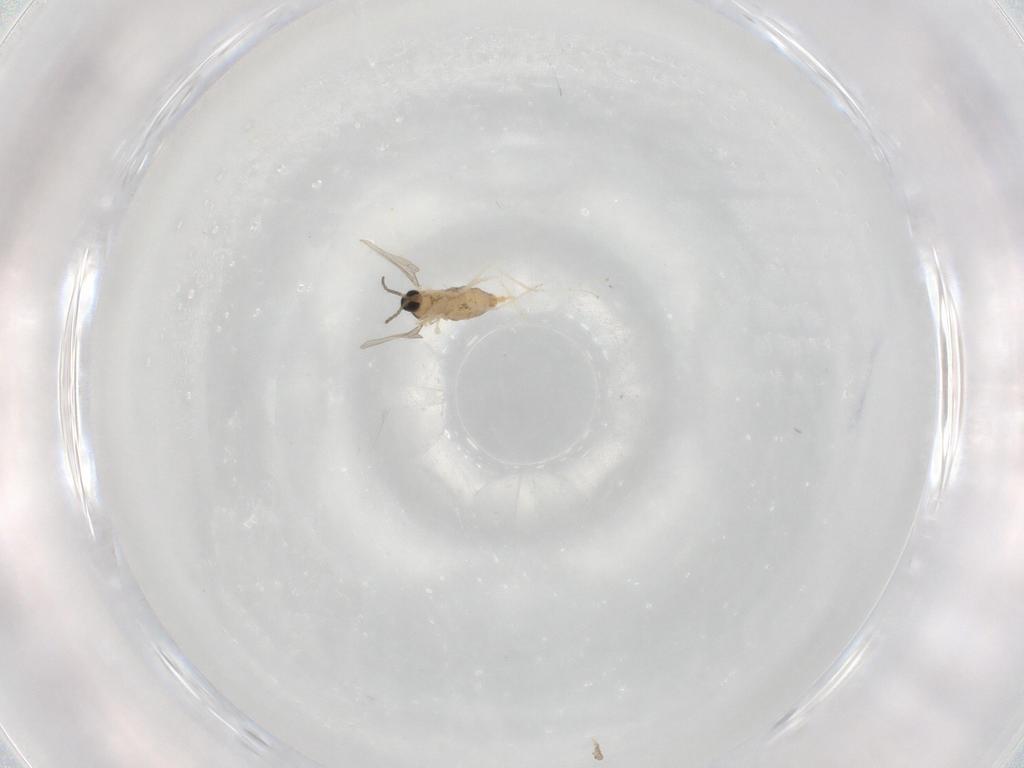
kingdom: Animalia
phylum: Arthropoda
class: Insecta
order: Diptera
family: Cecidomyiidae
